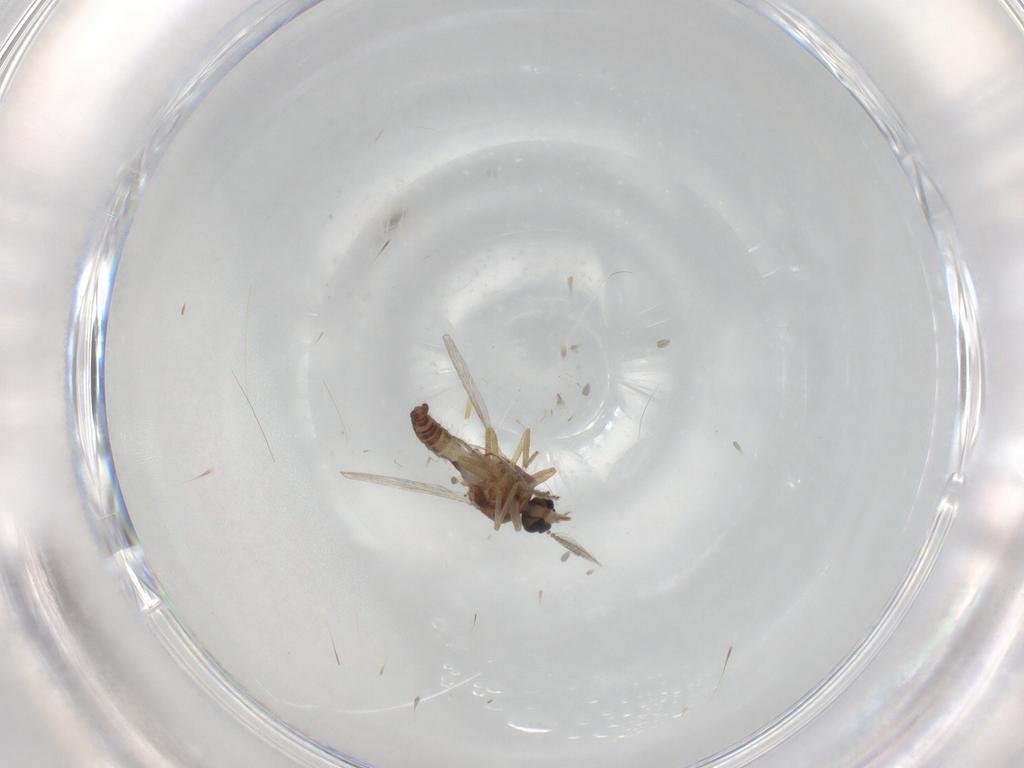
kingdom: Animalia
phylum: Arthropoda
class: Insecta
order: Diptera
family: Ceratopogonidae
